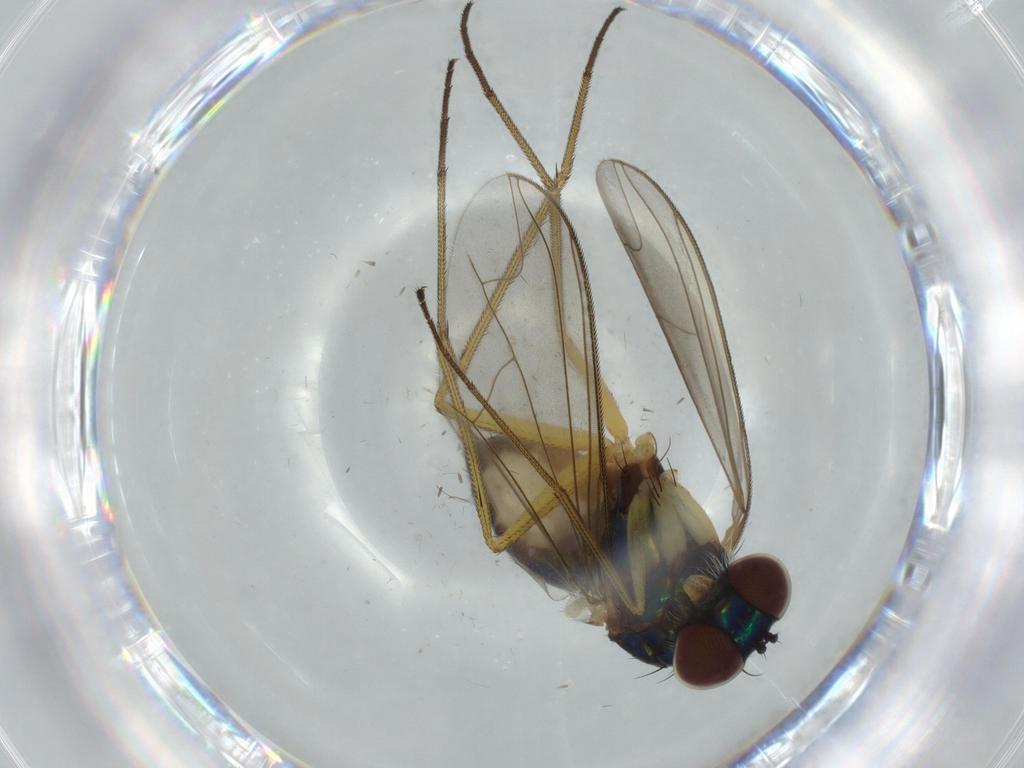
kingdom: Animalia
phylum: Arthropoda
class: Insecta
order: Diptera
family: Dolichopodidae
